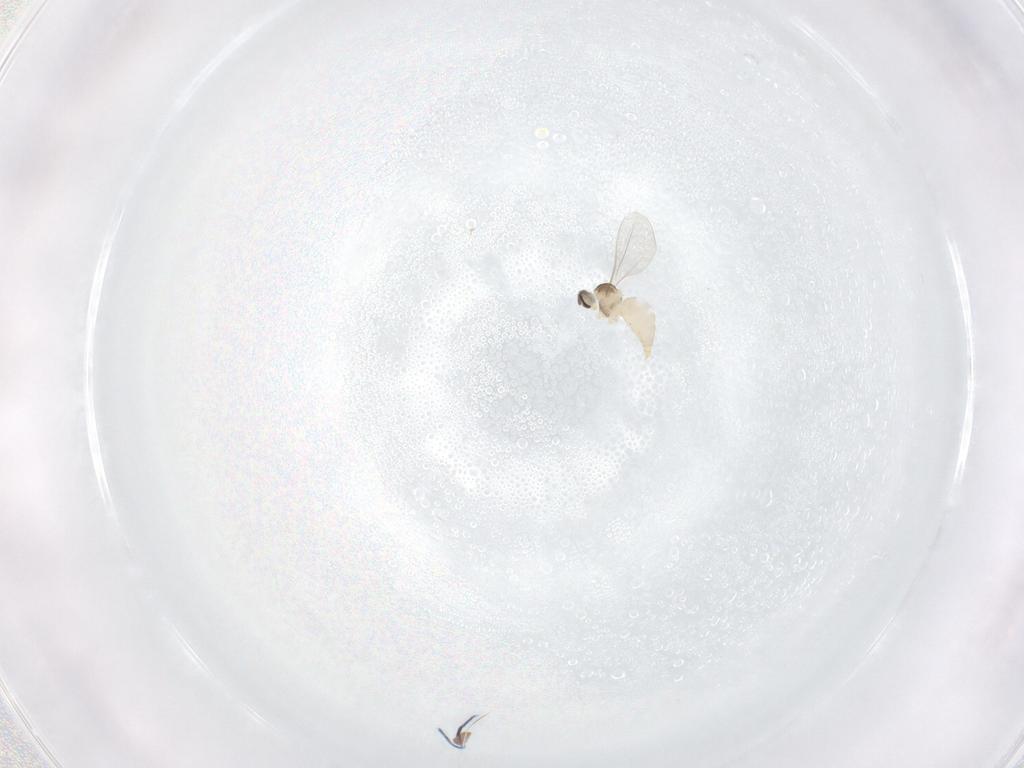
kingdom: Animalia
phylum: Arthropoda
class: Insecta
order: Diptera
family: Cecidomyiidae
